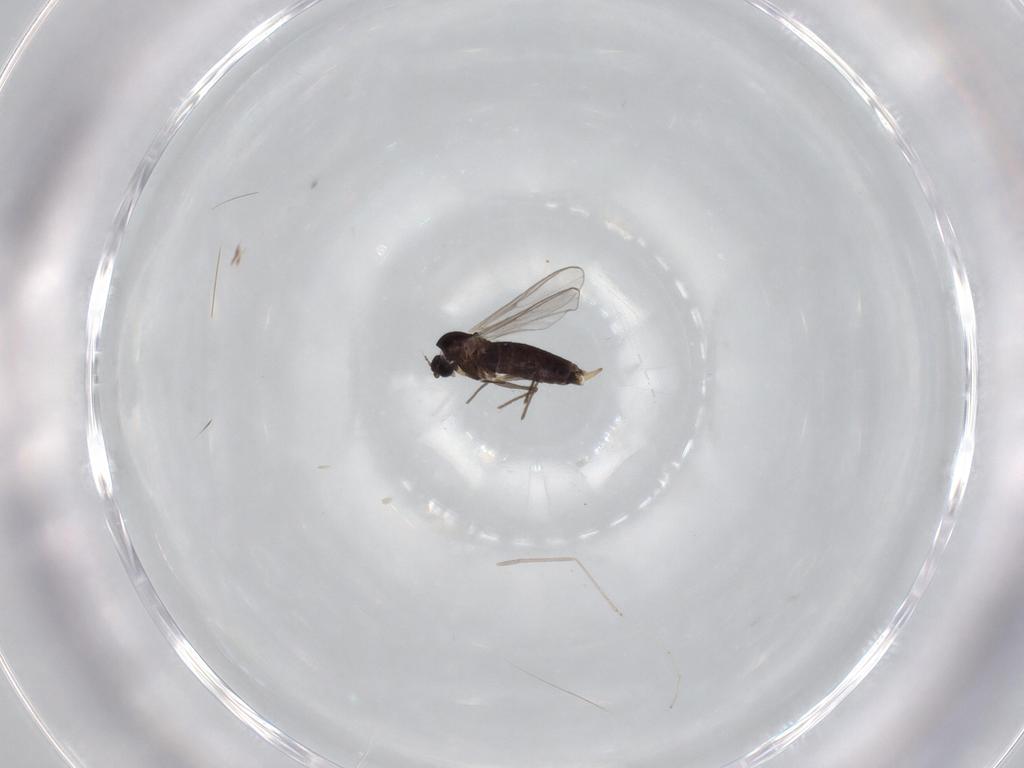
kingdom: Animalia
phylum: Arthropoda
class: Insecta
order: Diptera
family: Chironomidae
